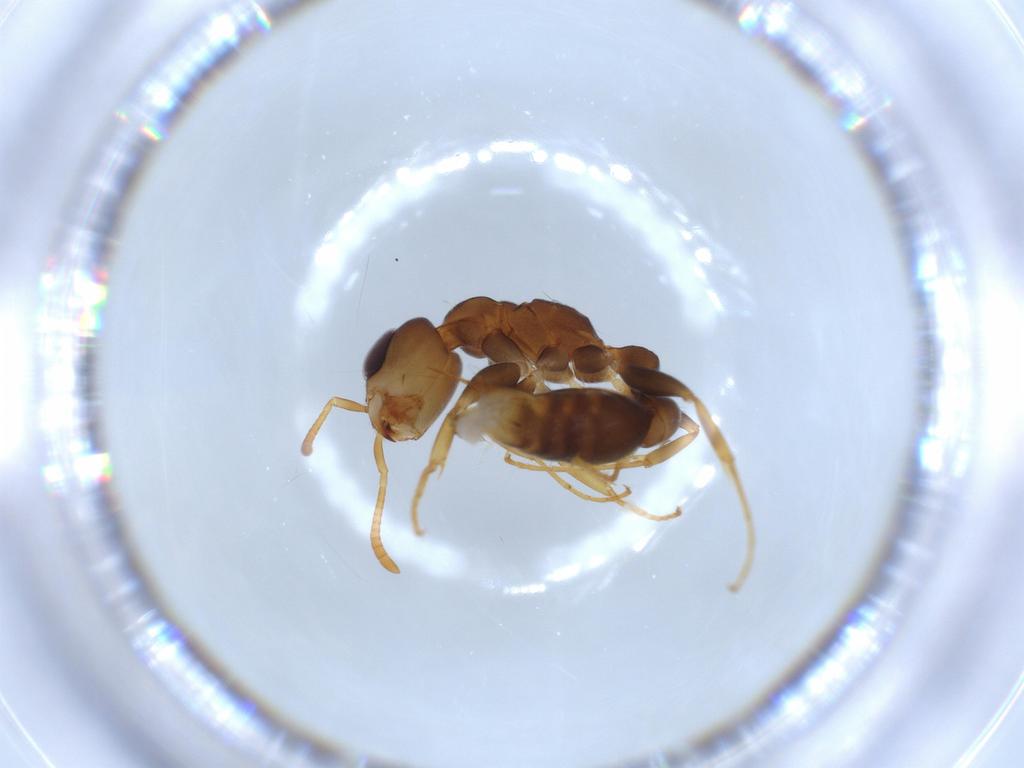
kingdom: Animalia
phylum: Arthropoda
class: Insecta
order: Hymenoptera
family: Formicidae
